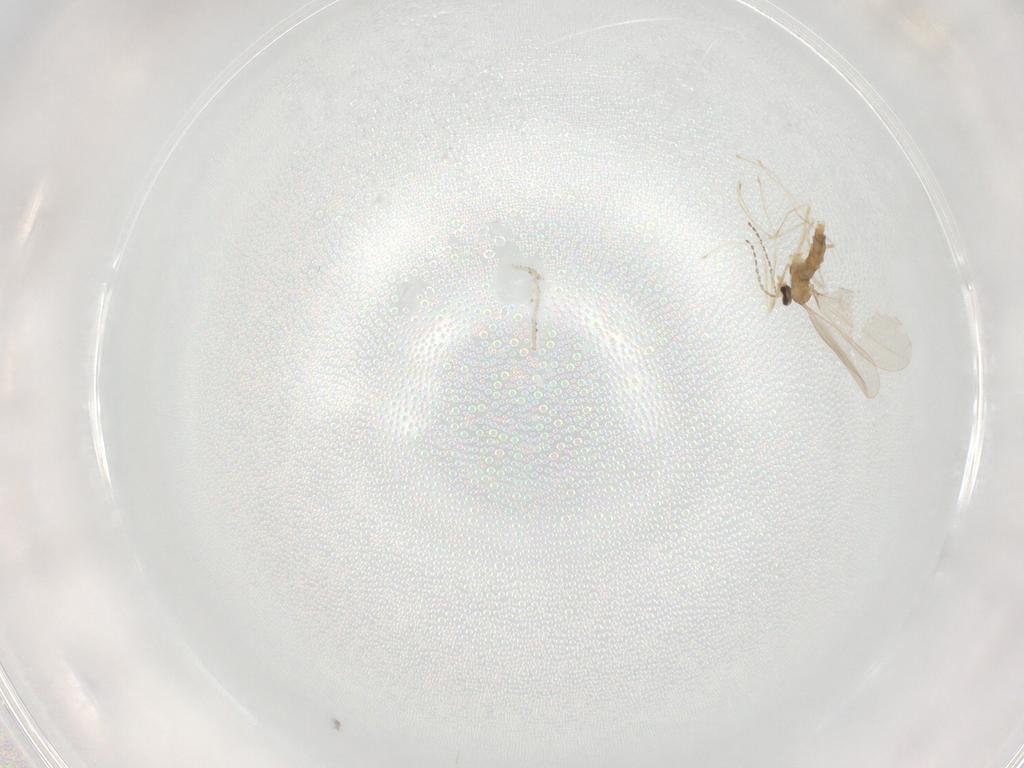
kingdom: Animalia
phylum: Arthropoda
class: Insecta
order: Diptera
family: Cecidomyiidae
